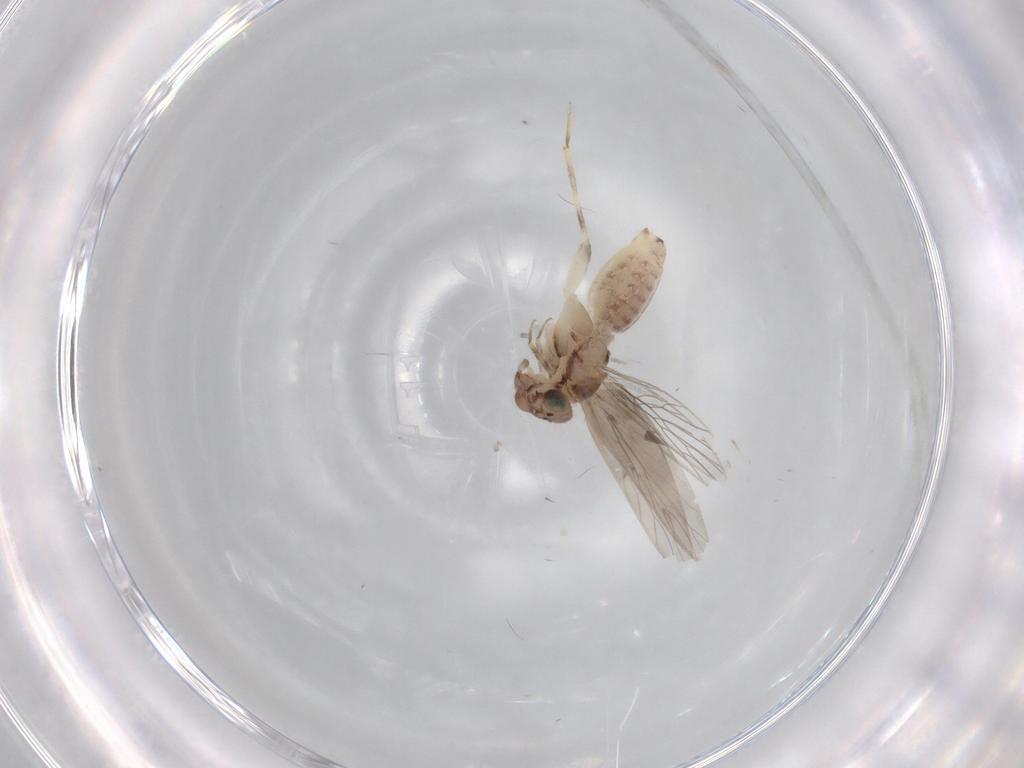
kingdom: Animalia
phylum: Arthropoda
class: Insecta
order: Psocodea
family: Lepidopsocidae
